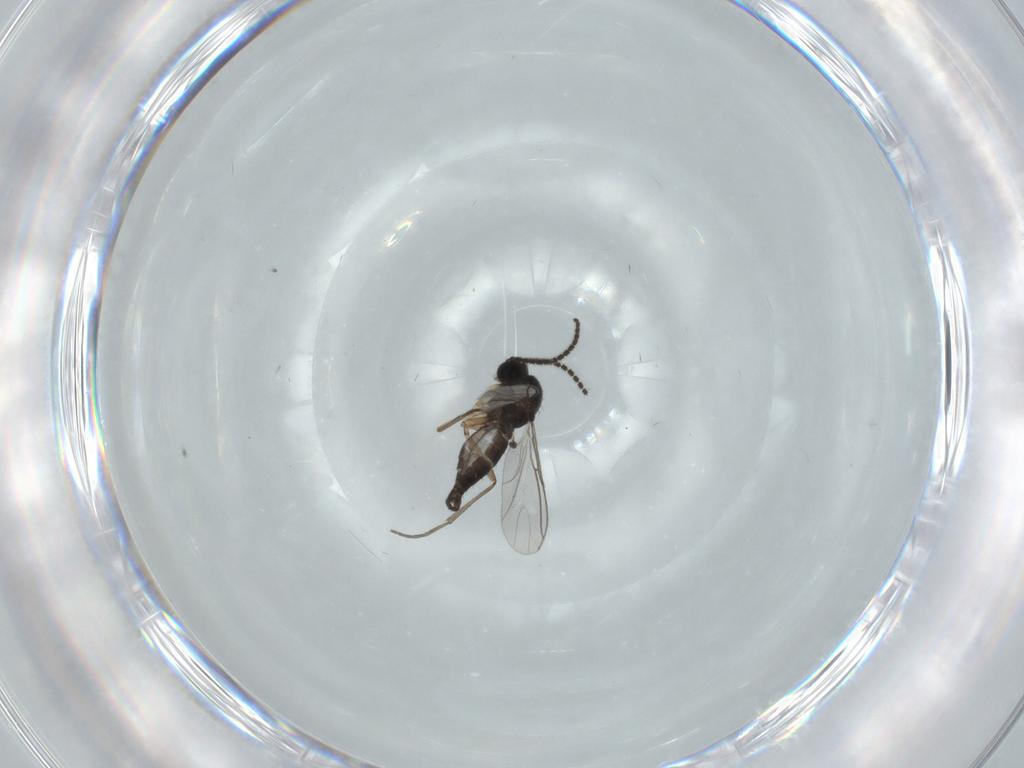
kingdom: Animalia
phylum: Arthropoda
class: Insecta
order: Diptera
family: Sciaridae
